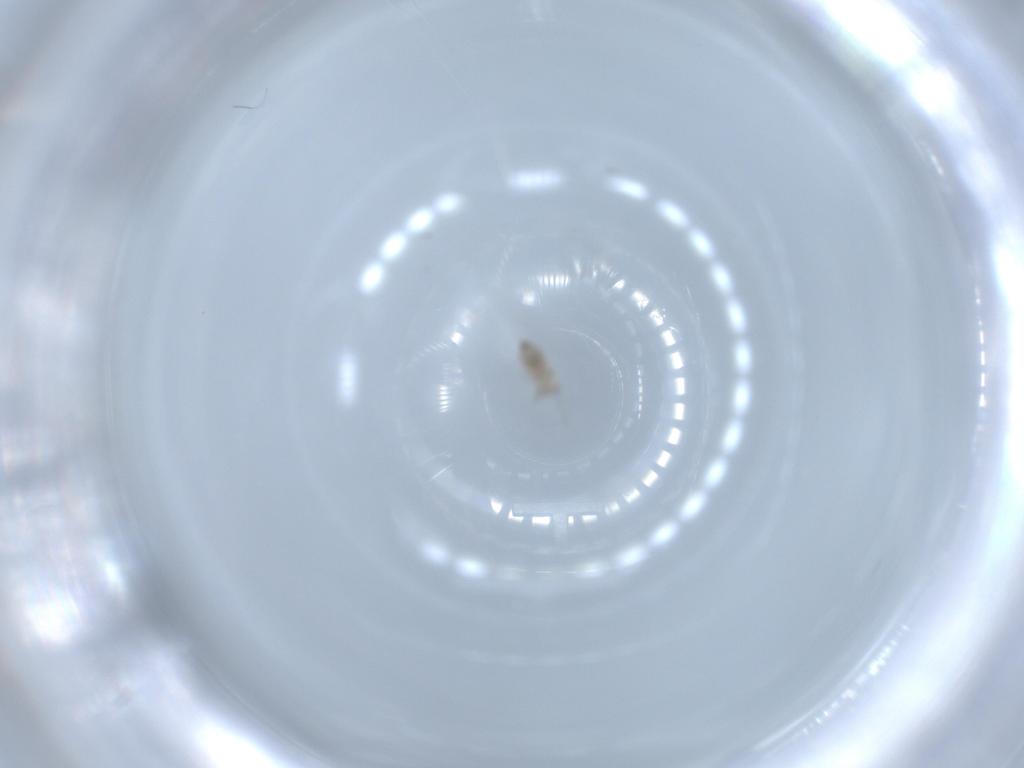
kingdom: Animalia
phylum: Arthropoda
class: Insecta
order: Diptera
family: Cecidomyiidae
